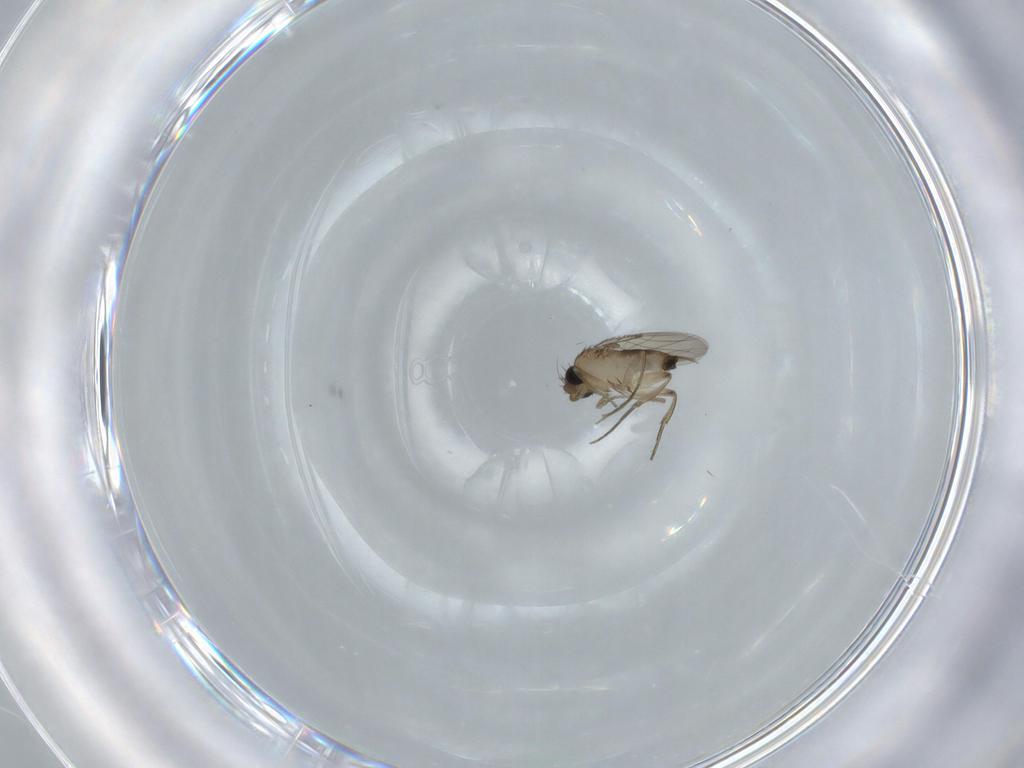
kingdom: Animalia
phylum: Arthropoda
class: Insecta
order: Diptera
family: Phoridae
